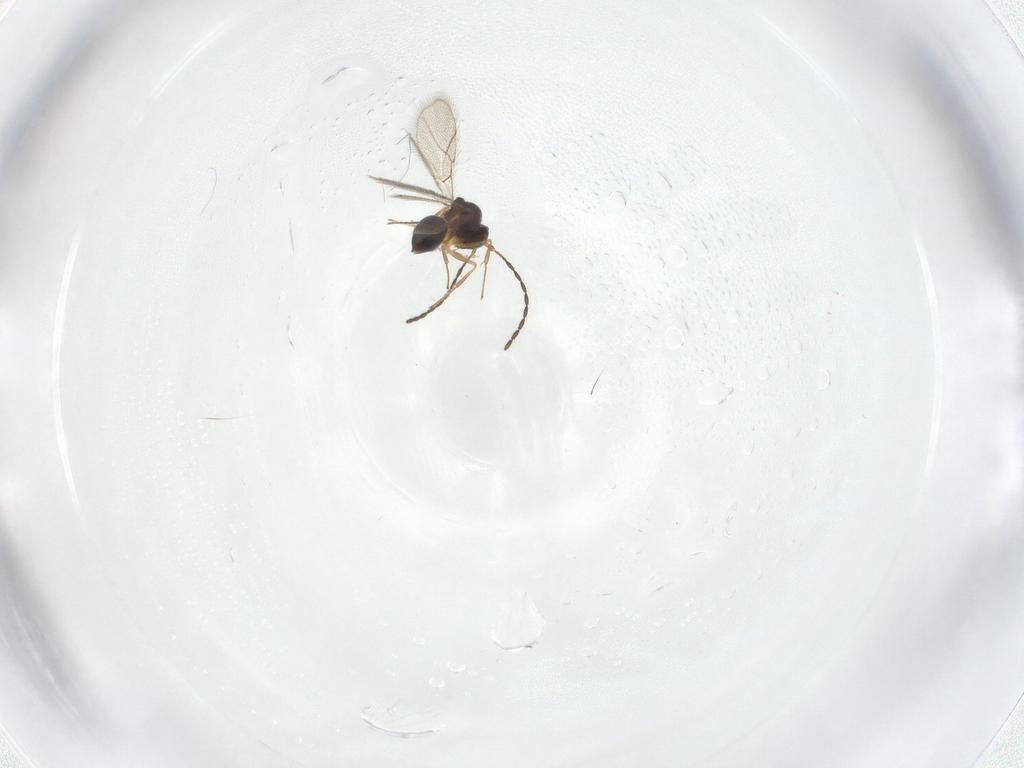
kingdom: Animalia
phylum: Arthropoda
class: Insecta
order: Hymenoptera
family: Figitidae
